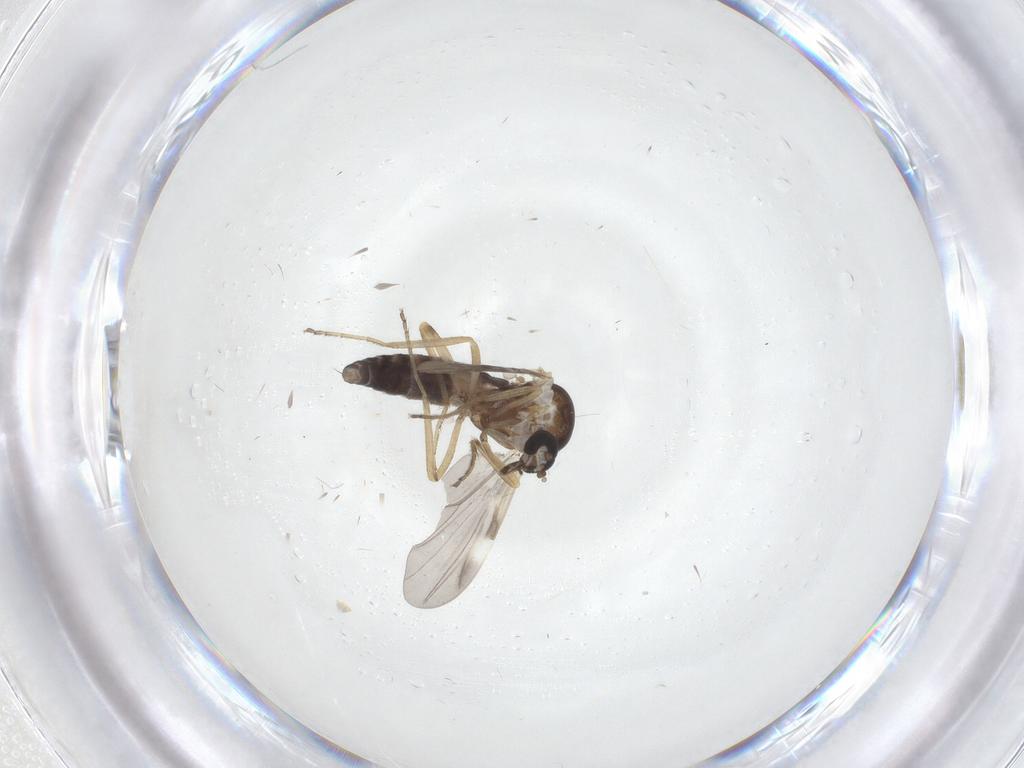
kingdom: Animalia
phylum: Arthropoda
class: Insecta
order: Diptera
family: Ceratopogonidae
